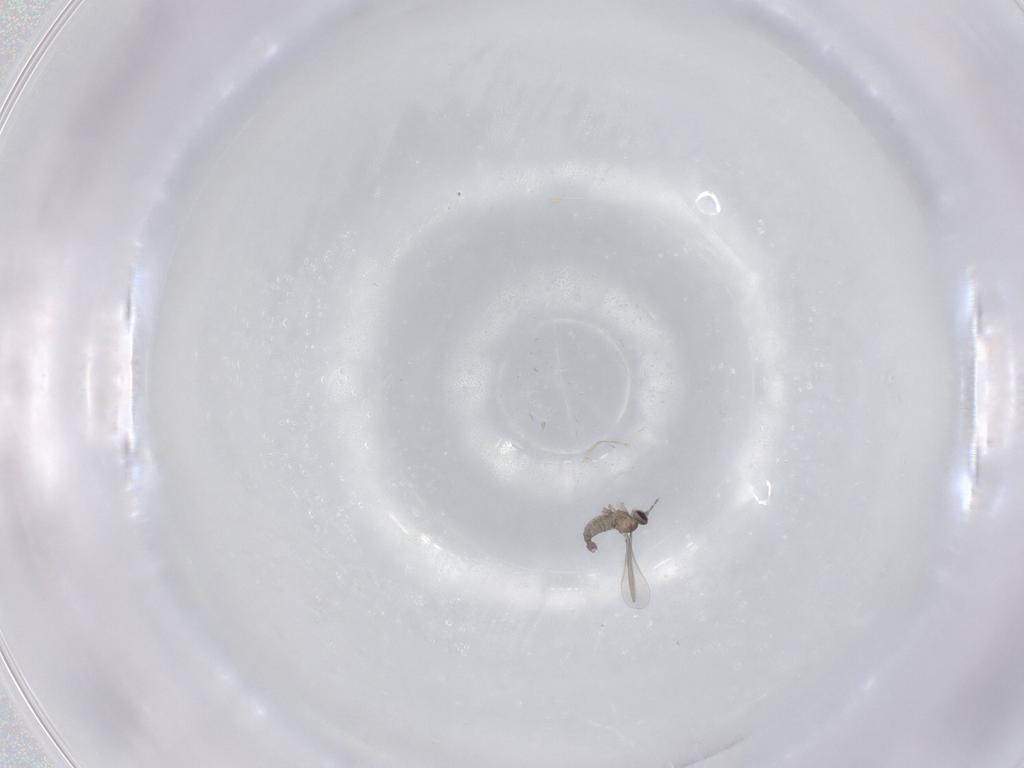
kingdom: Animalia
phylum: Arthropoda
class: Insecta
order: Diptera
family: Cecidomyiidae
